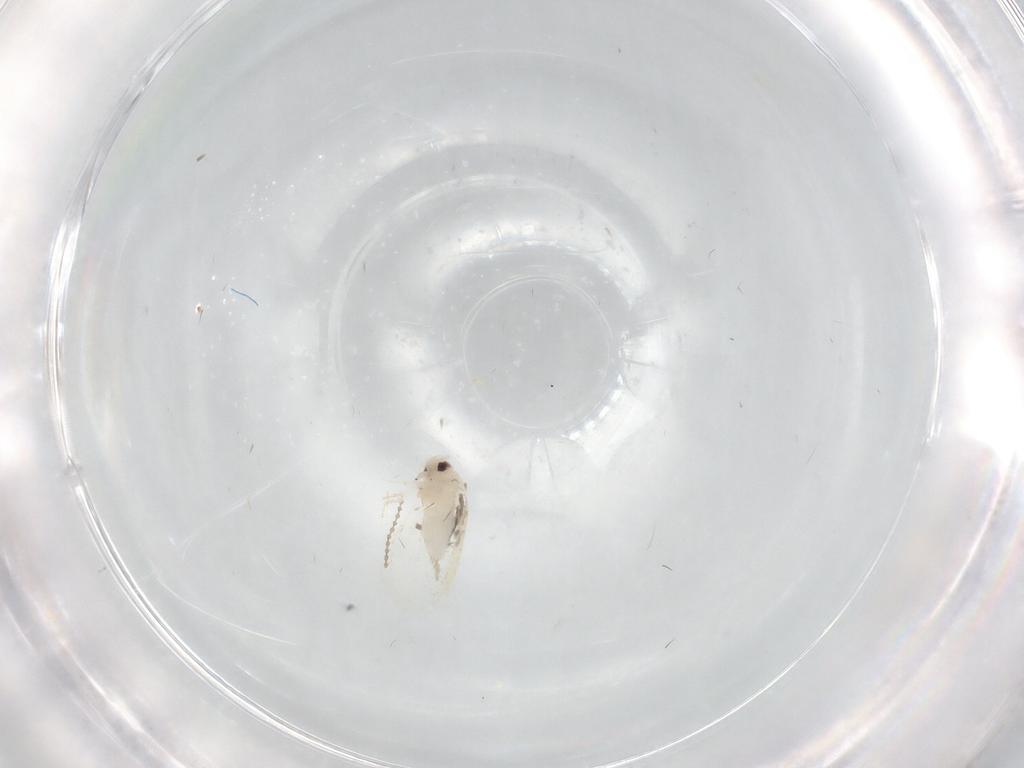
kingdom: Animalia
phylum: Arthropoda
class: Insecta
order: Hemiptera
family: Aleyrodidae
